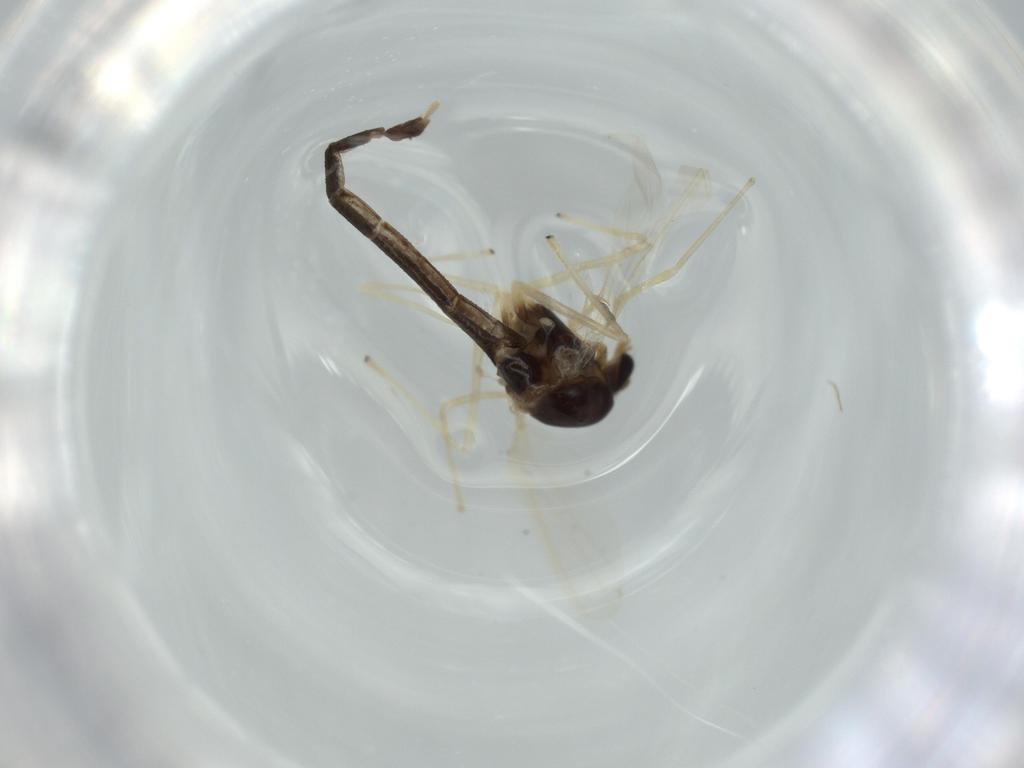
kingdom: Animalia
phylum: Arthropoda
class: Insecta
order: Diptera
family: Chironomidae
